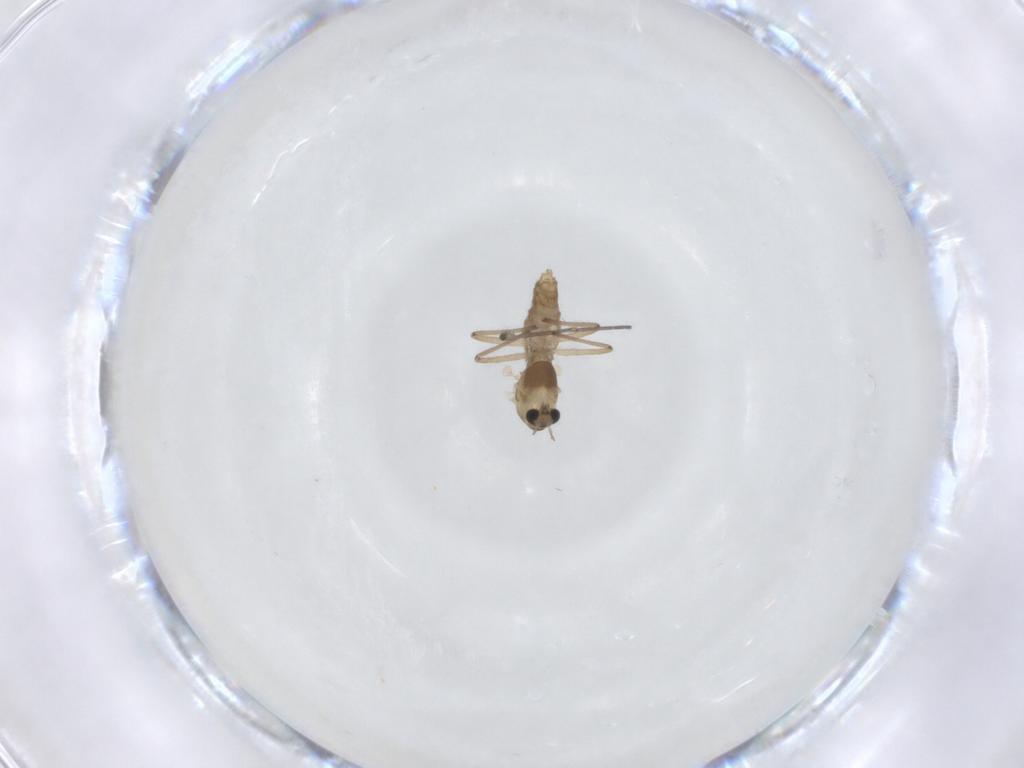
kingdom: Animalia
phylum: Arthropoda
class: Insecta
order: Diptera
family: Chironomidae
